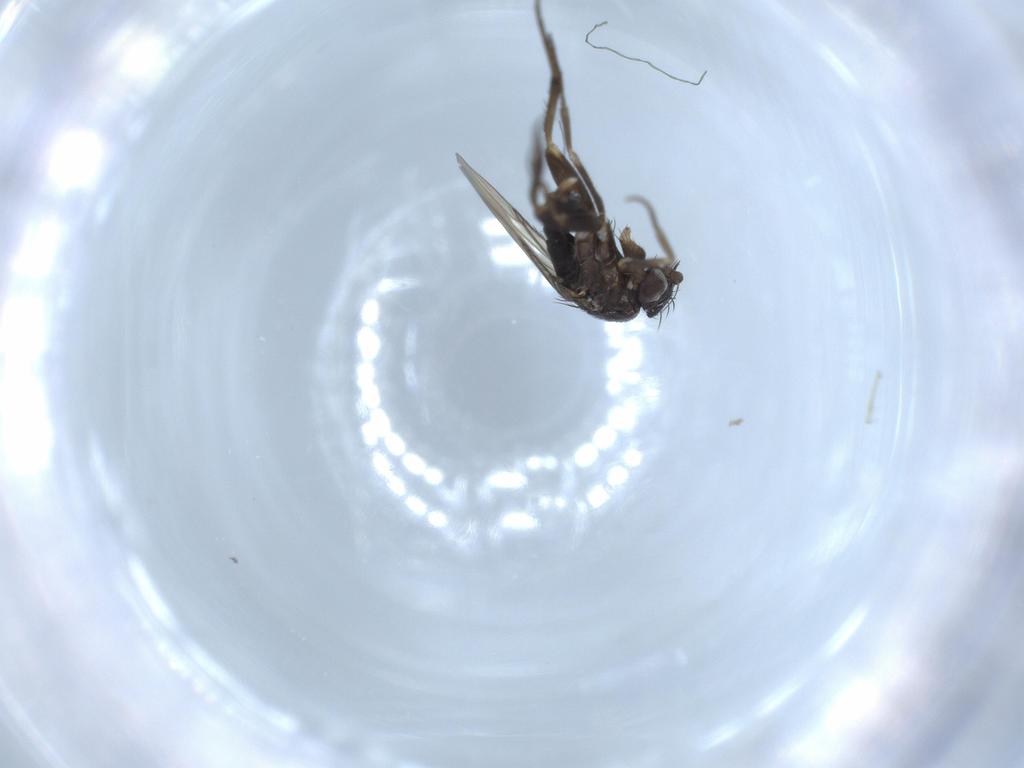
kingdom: Animalia
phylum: Arthropoda
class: Insecta
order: Diptera
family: Phoridae
